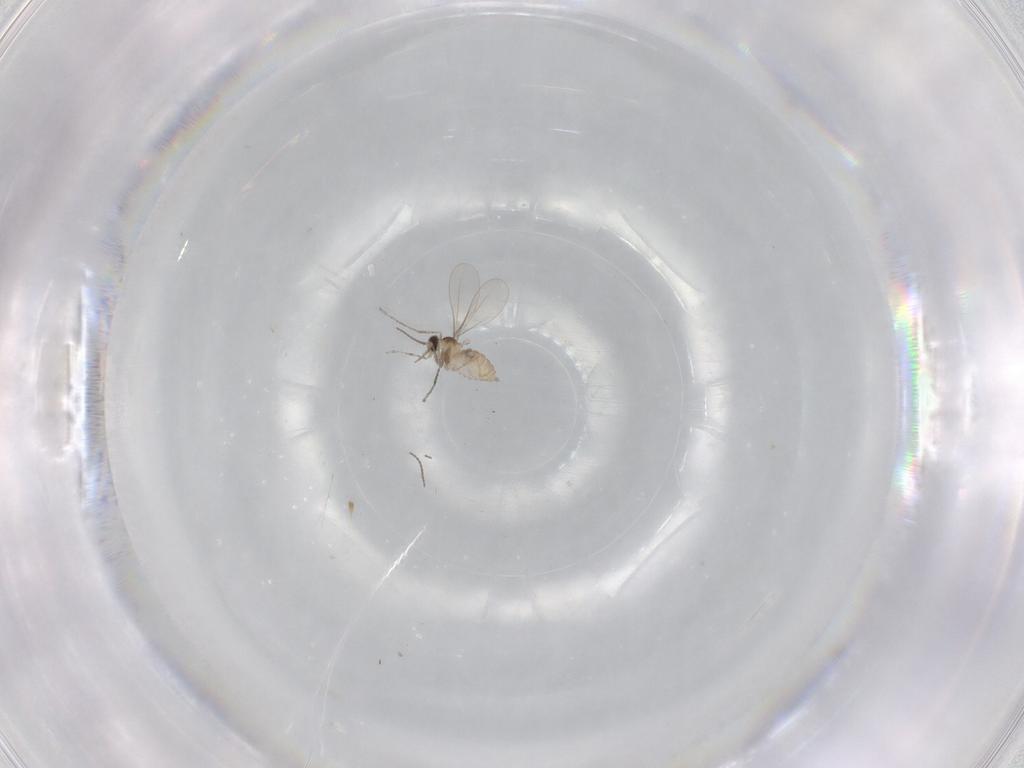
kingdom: Animalia
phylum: Arthropoda
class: Insecta
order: Diptera
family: Cecidomyiidae
